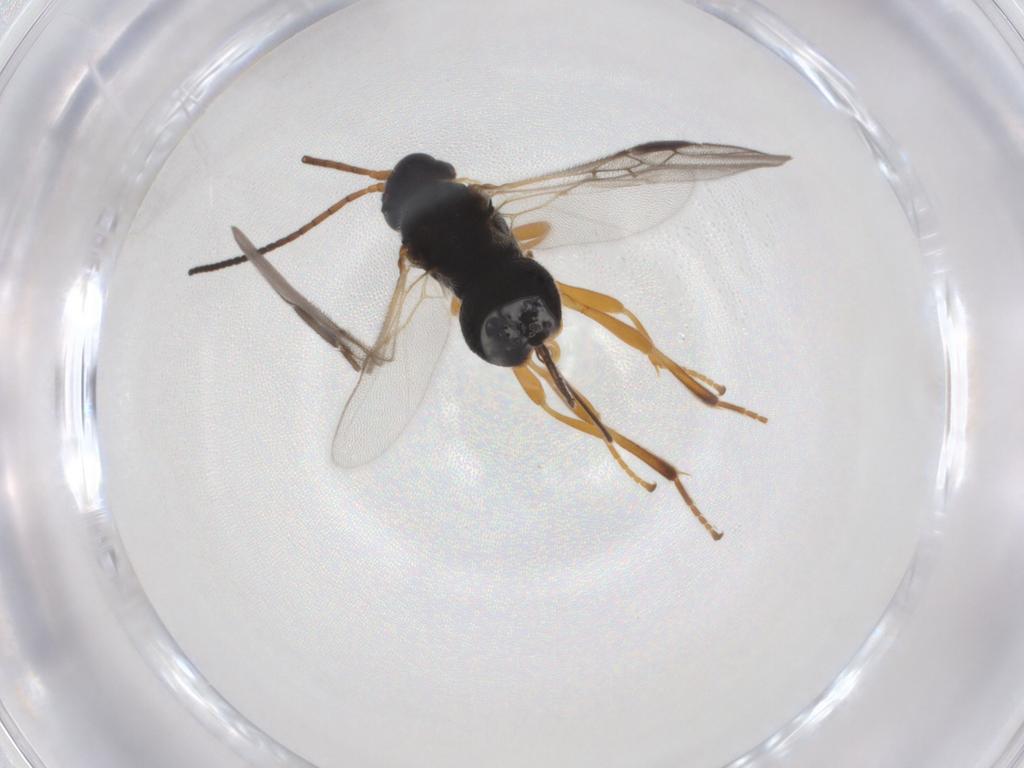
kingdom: Animalia
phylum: Arthropoda
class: Insecta
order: Hymenoptera
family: Braconidae
